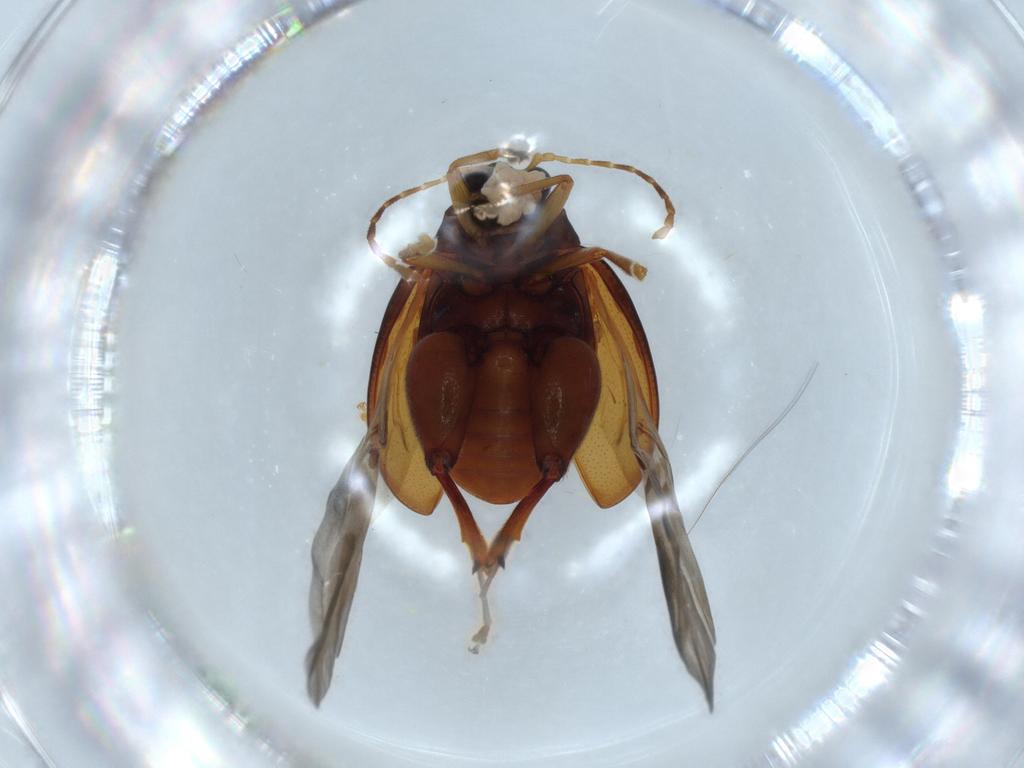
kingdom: Animalia
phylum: Arthropoda
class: Insecta
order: Coleoptera
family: Chrysomelidae
